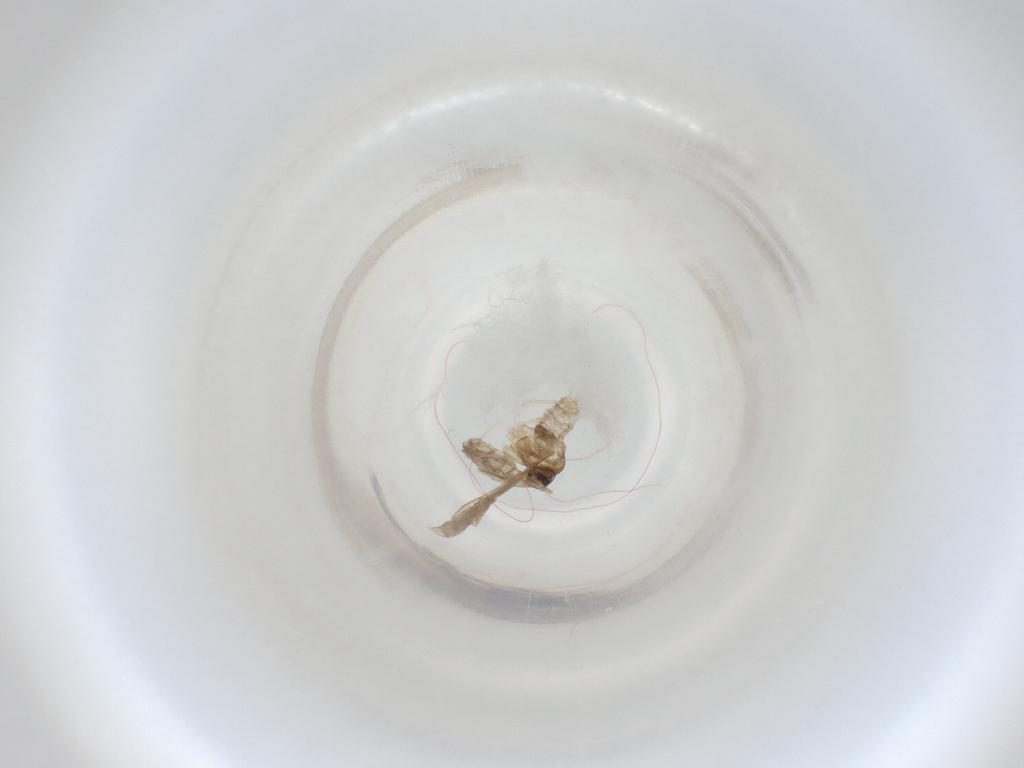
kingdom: Animalia
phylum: Arthropoda
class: Insecta
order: Diptera
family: Cecidomyiidae
